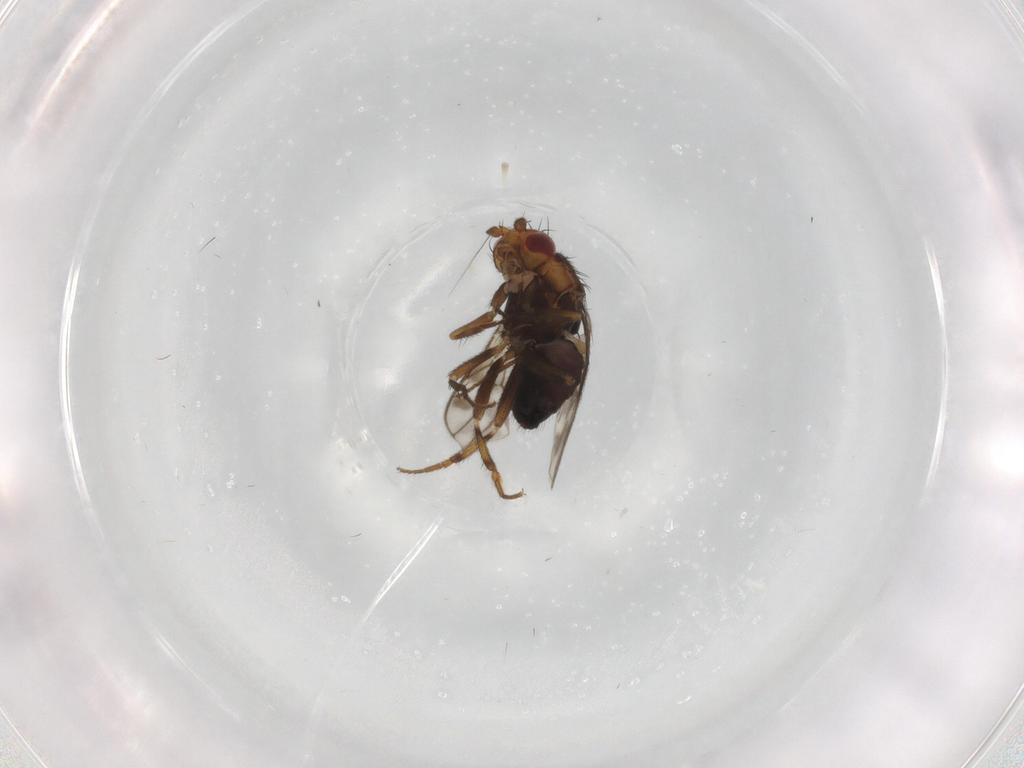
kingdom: Animalia
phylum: Arthropoda
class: Insecta
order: Diptera
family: Sphaeroceridae
